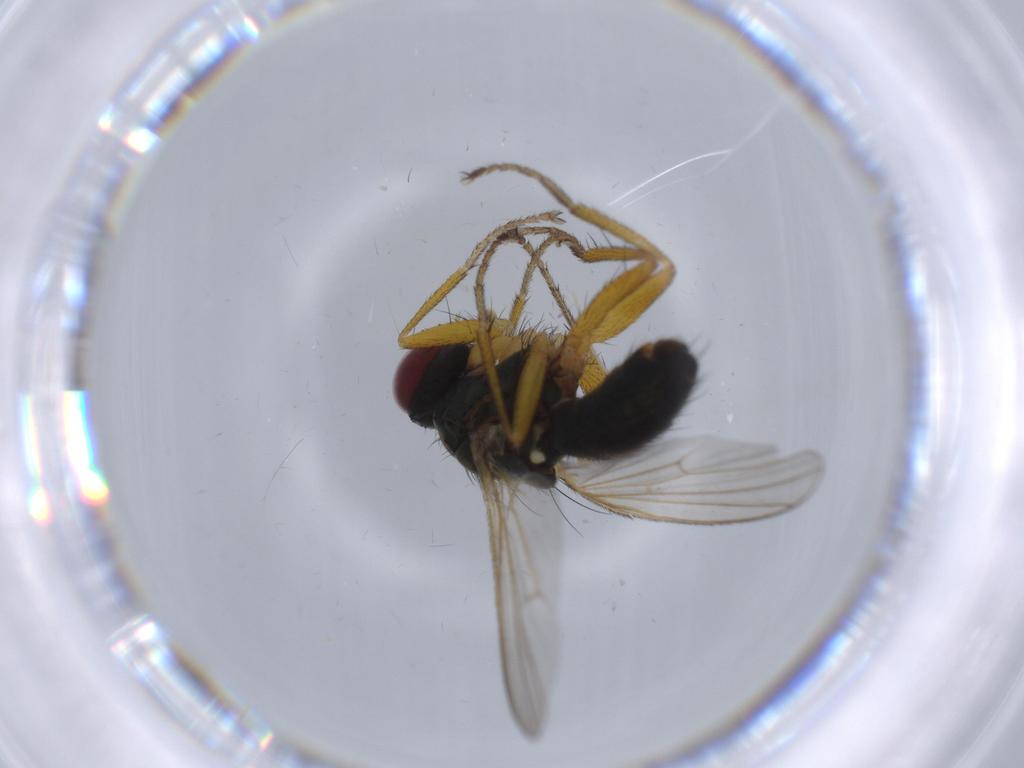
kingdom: Animalia
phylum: Arthropoda
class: Insecta
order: Diptera
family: Muscidae
